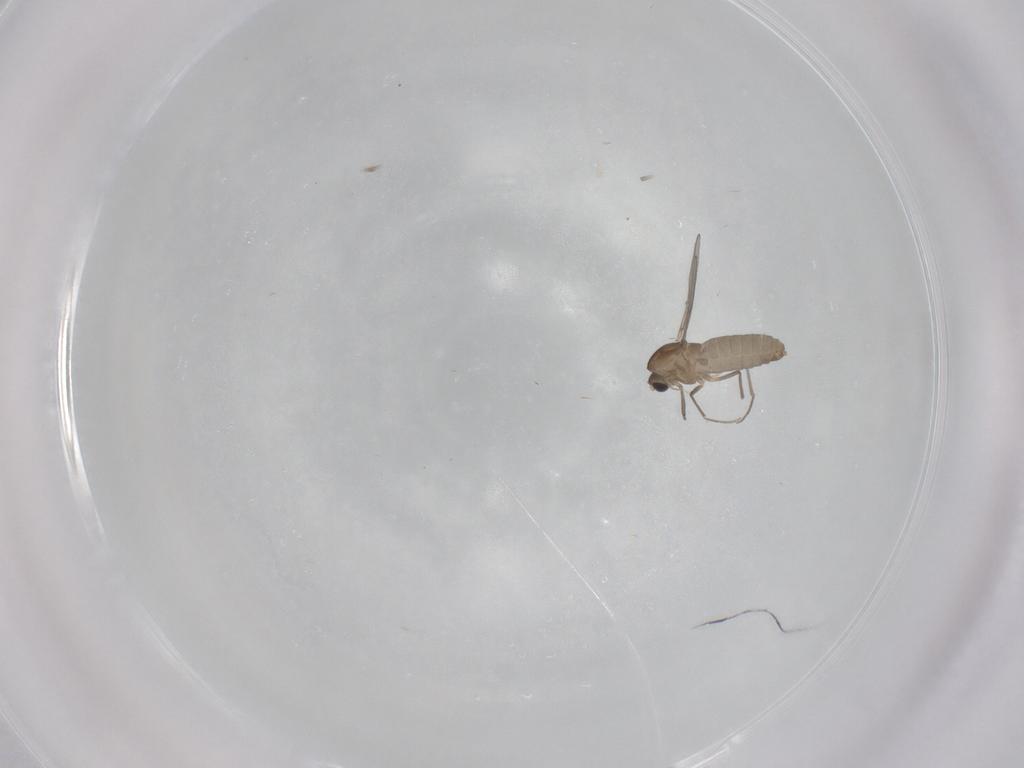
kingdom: Animalia
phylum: Arthropoda
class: Insecta
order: Diptera
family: Chironomidae
